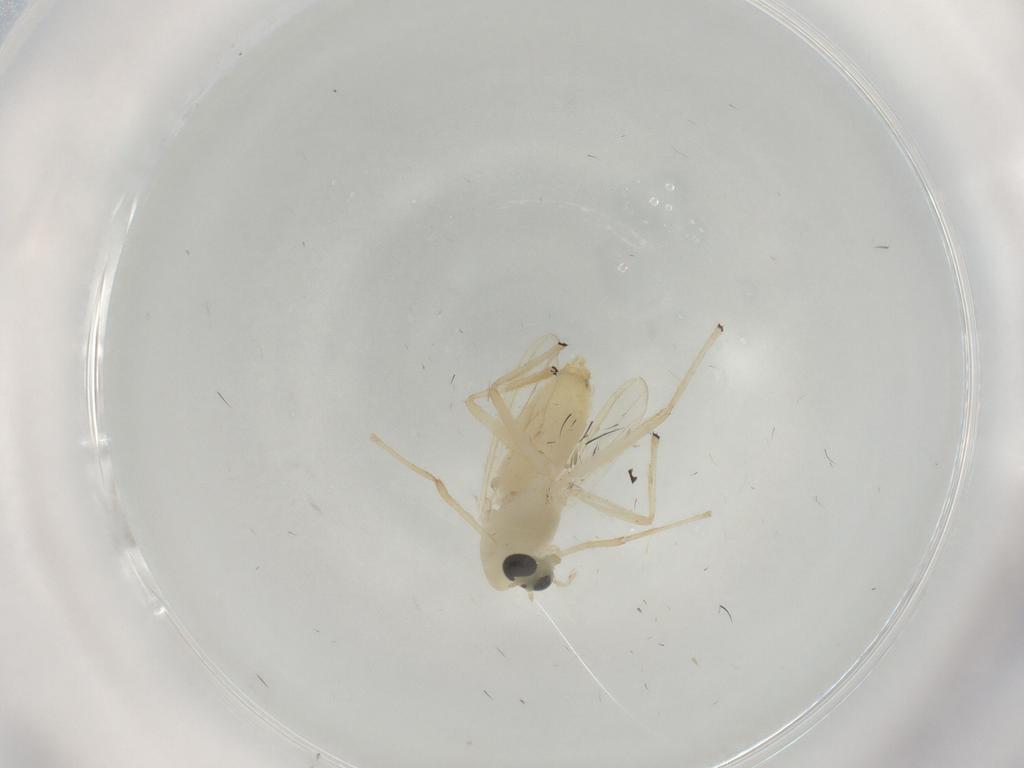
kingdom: Animalia
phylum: Arthropoda
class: Insecta
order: Diptera
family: Chironomidae
